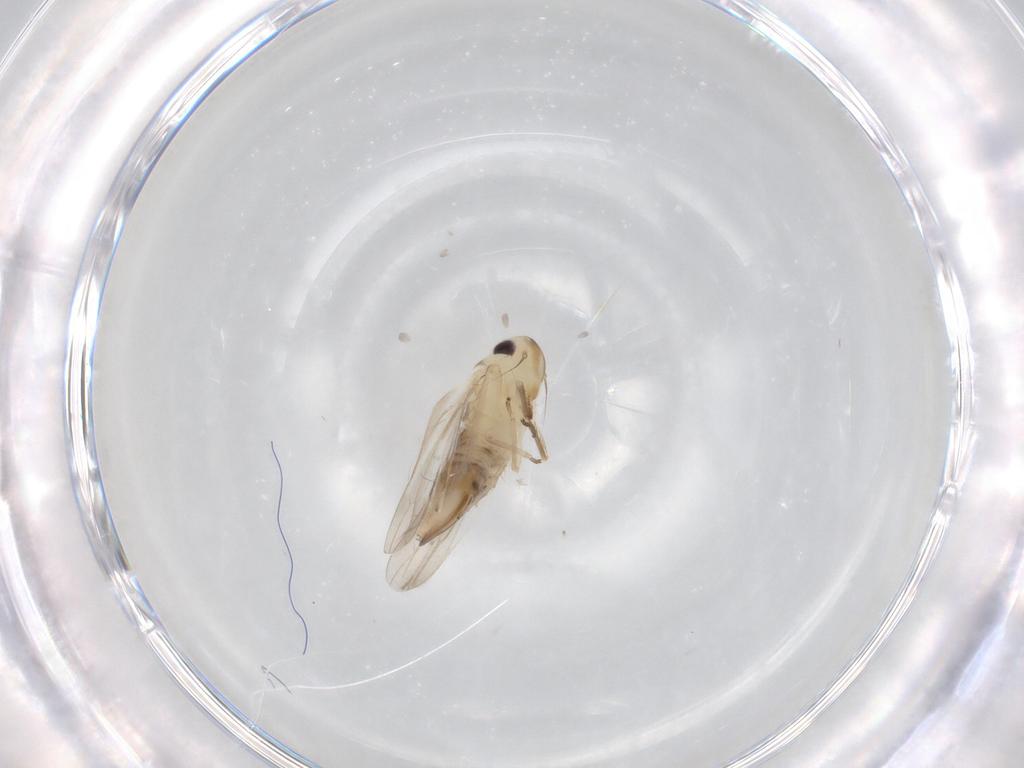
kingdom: Animalia
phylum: Arthropoda
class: Insecta
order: Hemiptera
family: Cicadellidae
